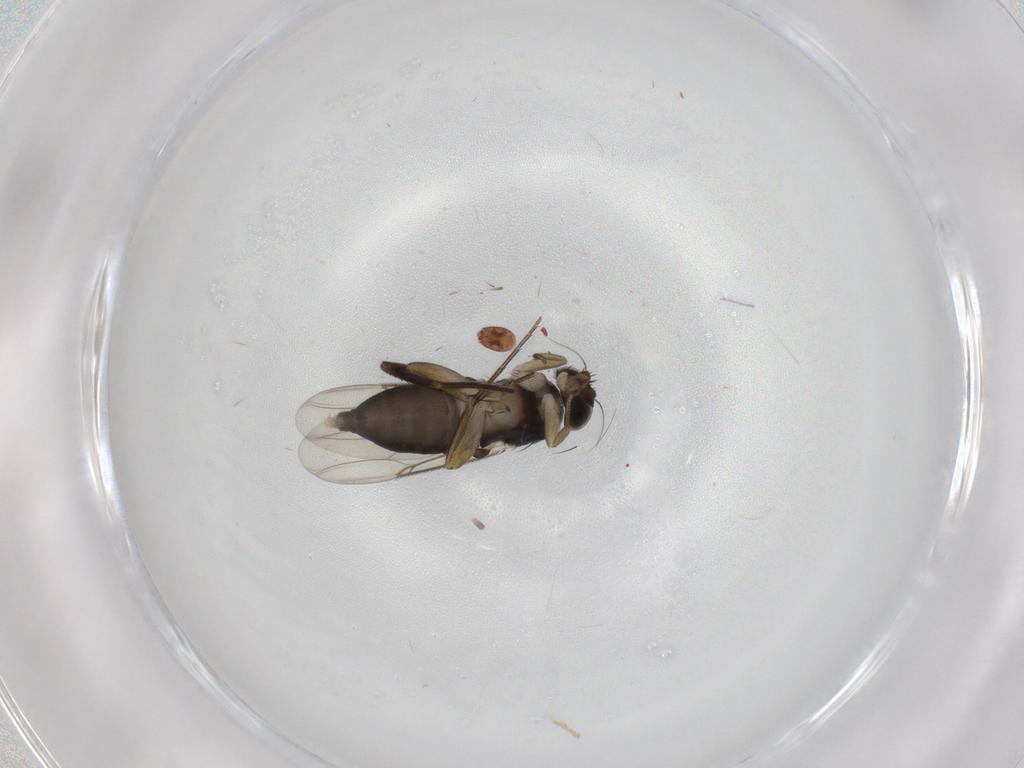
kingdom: Animalia
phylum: Arthropoda
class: Insecta
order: Diptera
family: Phoridae
